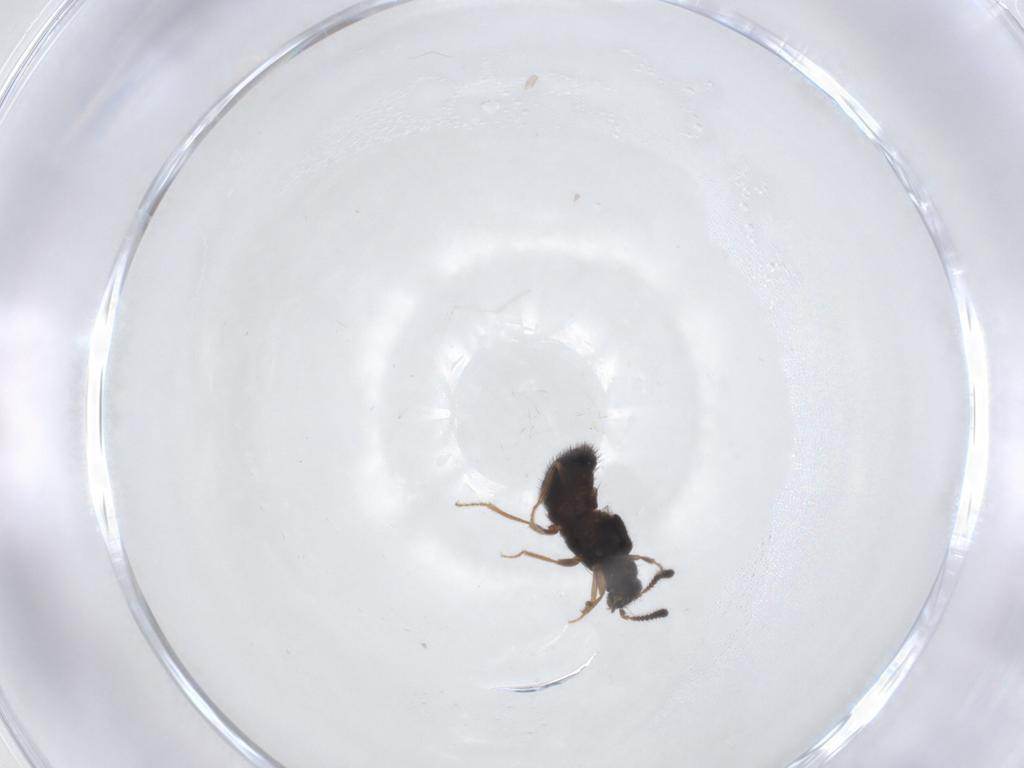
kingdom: Animalia
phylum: Arthropoda
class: Insecta
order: Coleoptera
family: Staphylinidae
